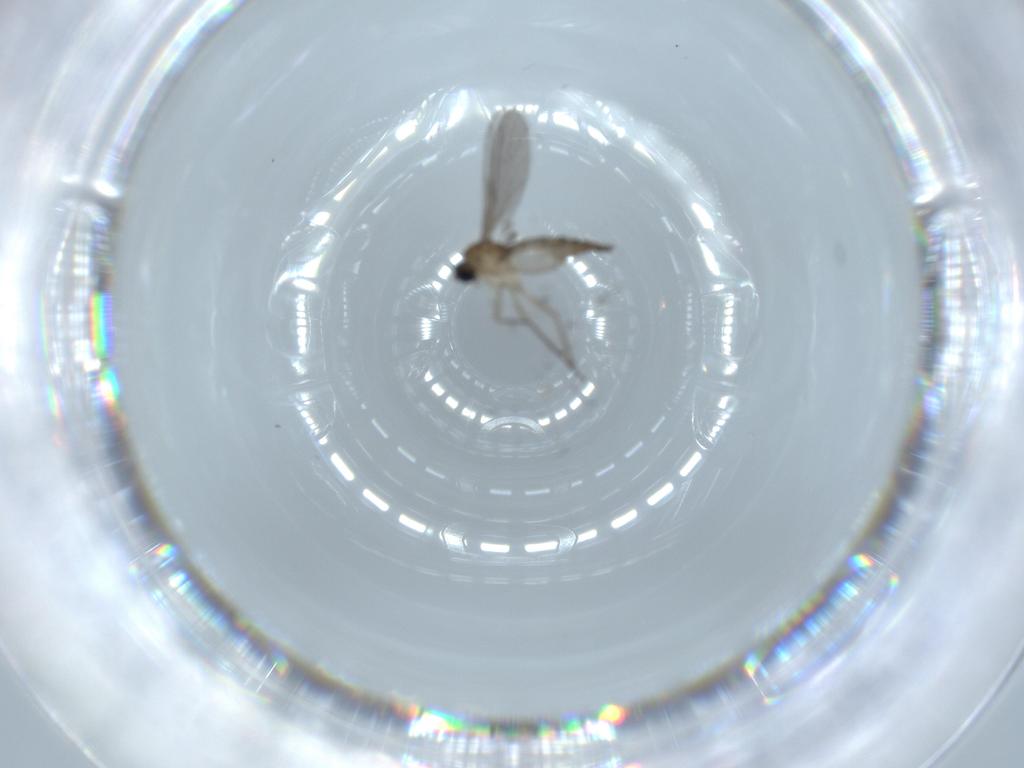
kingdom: Animalia
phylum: Arthropoda
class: Insecta
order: Diptera
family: Sciaridae
